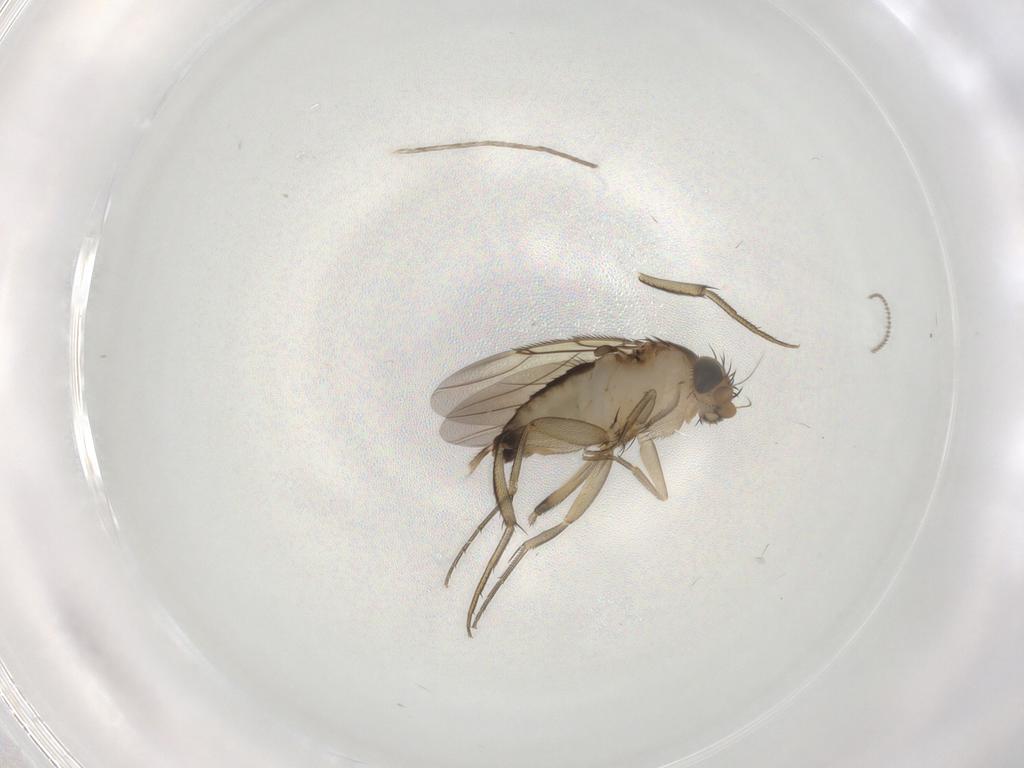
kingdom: Animalia
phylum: Arthropoda
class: Insecta
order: Diptera
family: Phoridae
